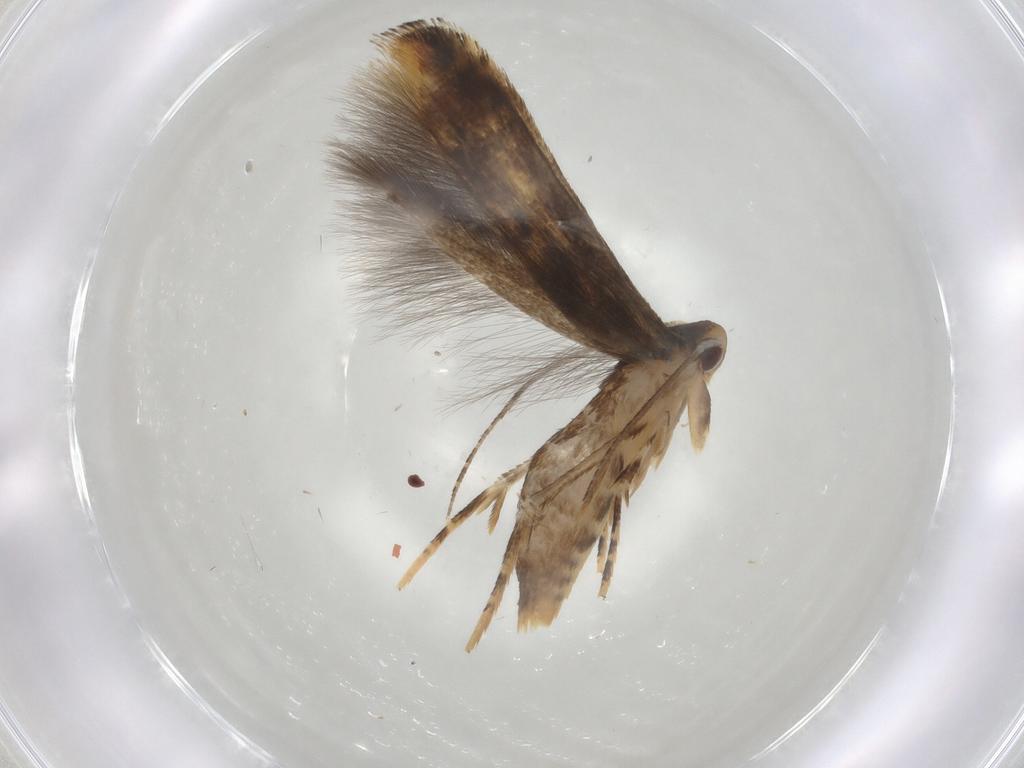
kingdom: Animalia
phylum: Arthropoda
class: Insecta
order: Lepidoptera
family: Momphidae
